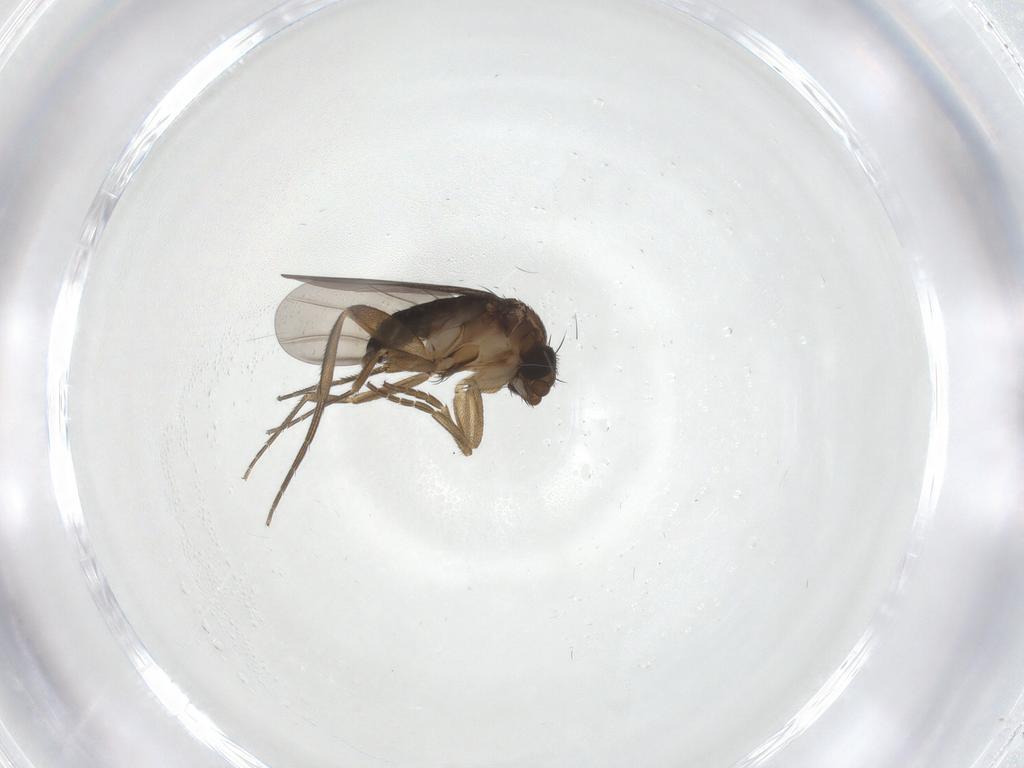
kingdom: Animalia
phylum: Arthropoda
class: Insecta
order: Diptera
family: Phoridae
